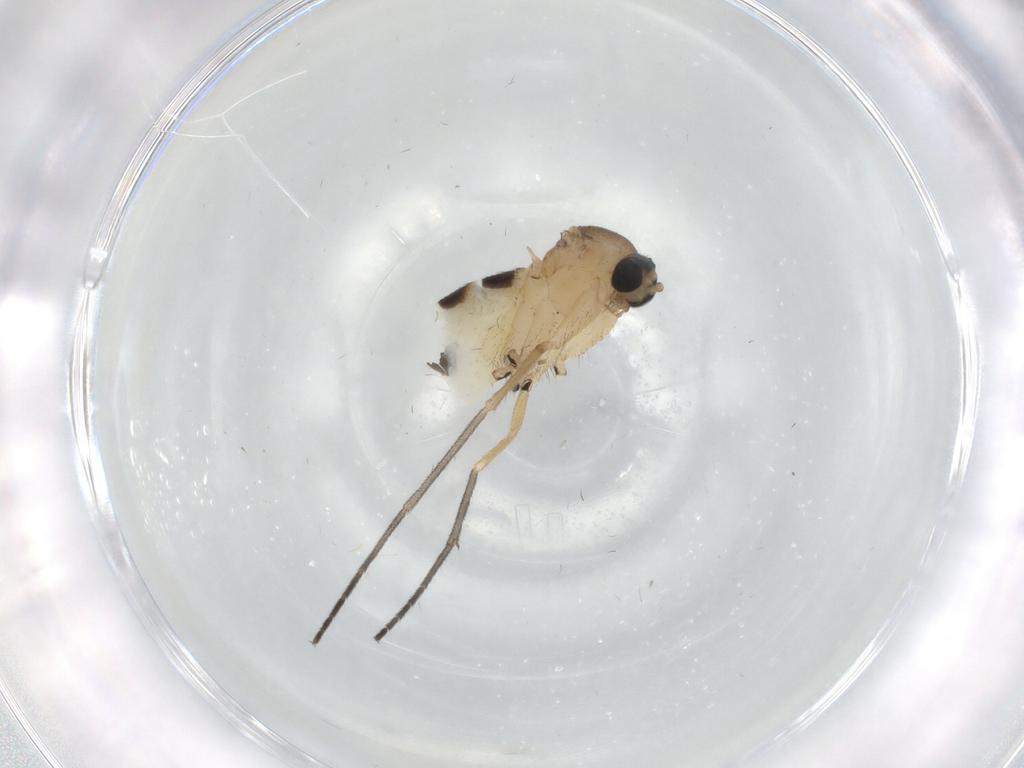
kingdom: Animalia
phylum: Arthropoda
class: Insecta
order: Diptera
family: Sciaridae
